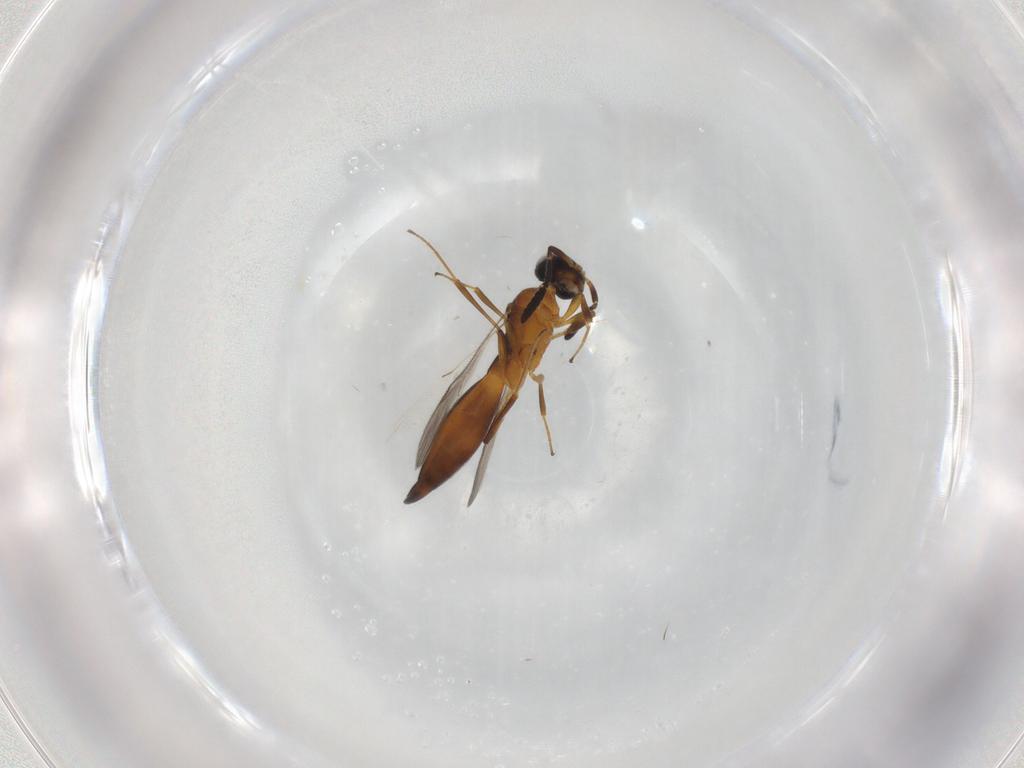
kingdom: Animalia
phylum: Arthropoda
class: Insecta
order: Hymenoptera
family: Scelionidae
